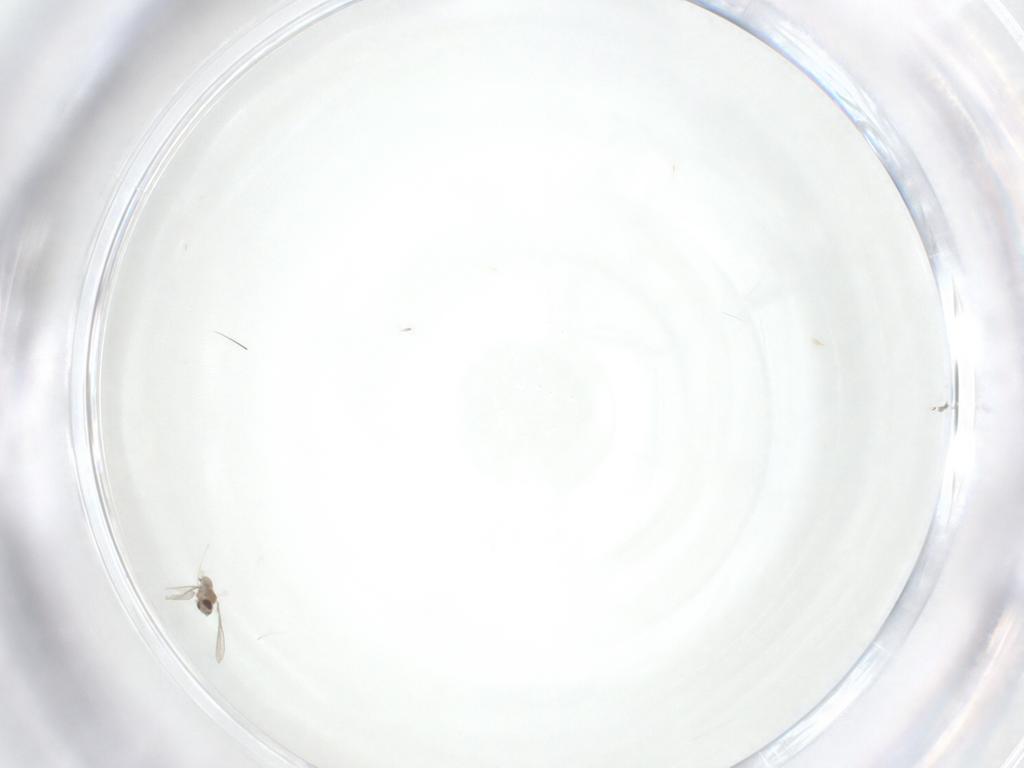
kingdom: Animalia
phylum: Arthropoda
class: Insecta
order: Diptera
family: Cecidomyiidae
